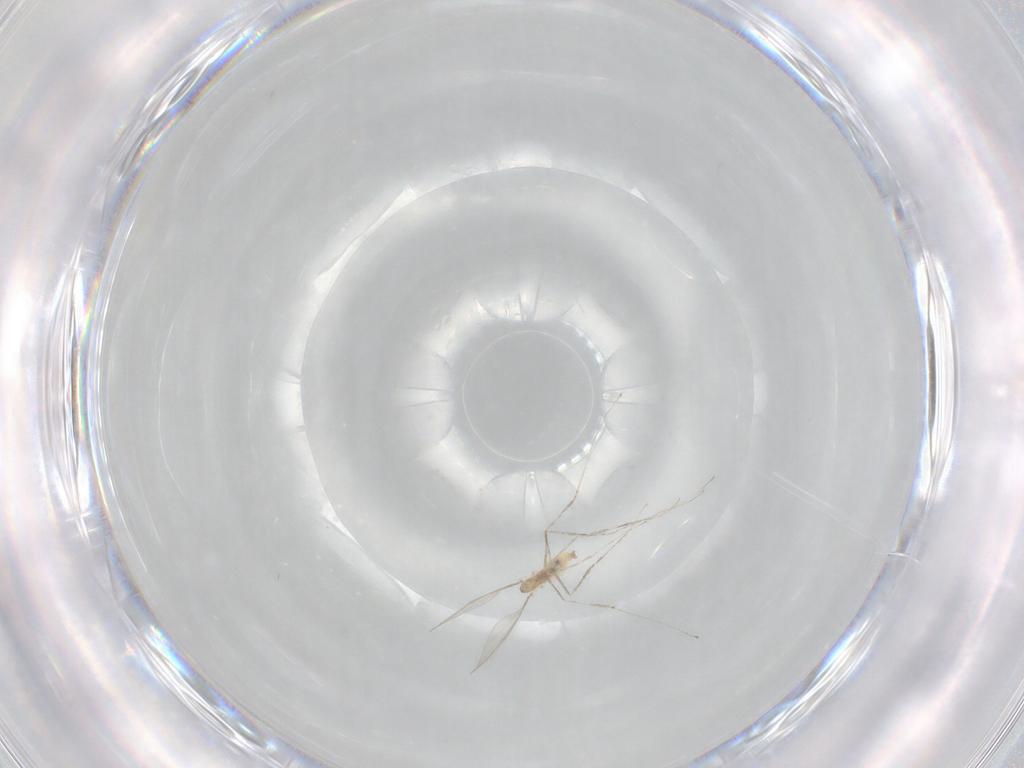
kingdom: Animalia
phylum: Arthropoda
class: Insecta
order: Diptera
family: Cecidomyiidae
